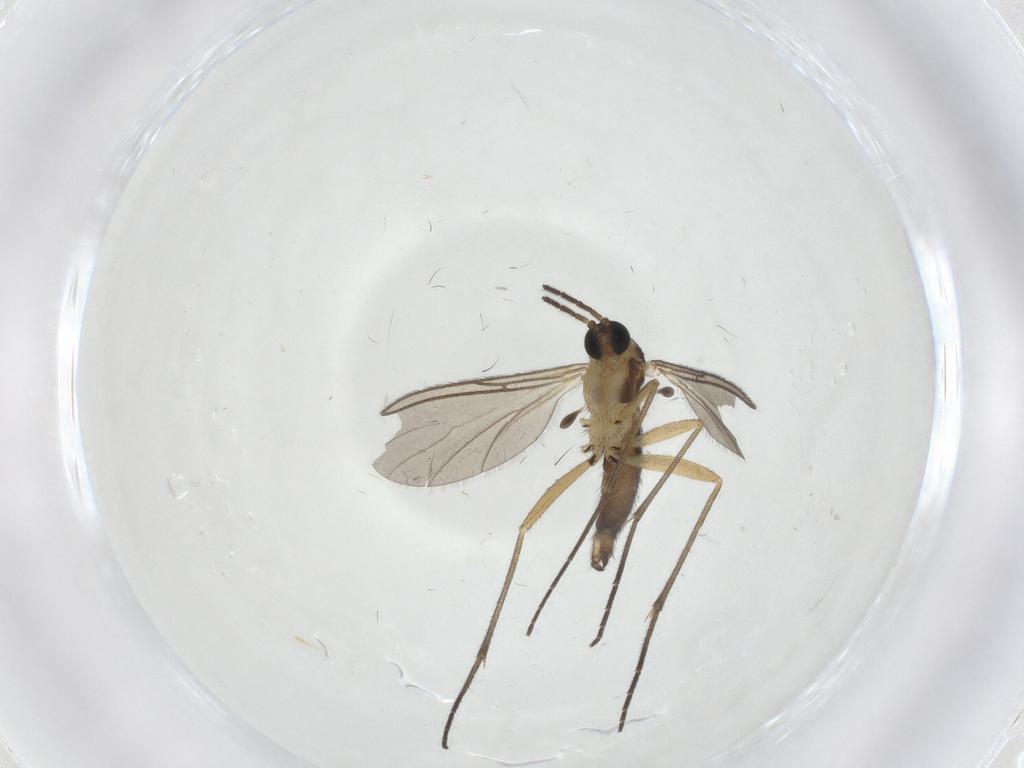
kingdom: Animalia
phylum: Arthropoda
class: Insecta
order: Diptera
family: Sciaridae
